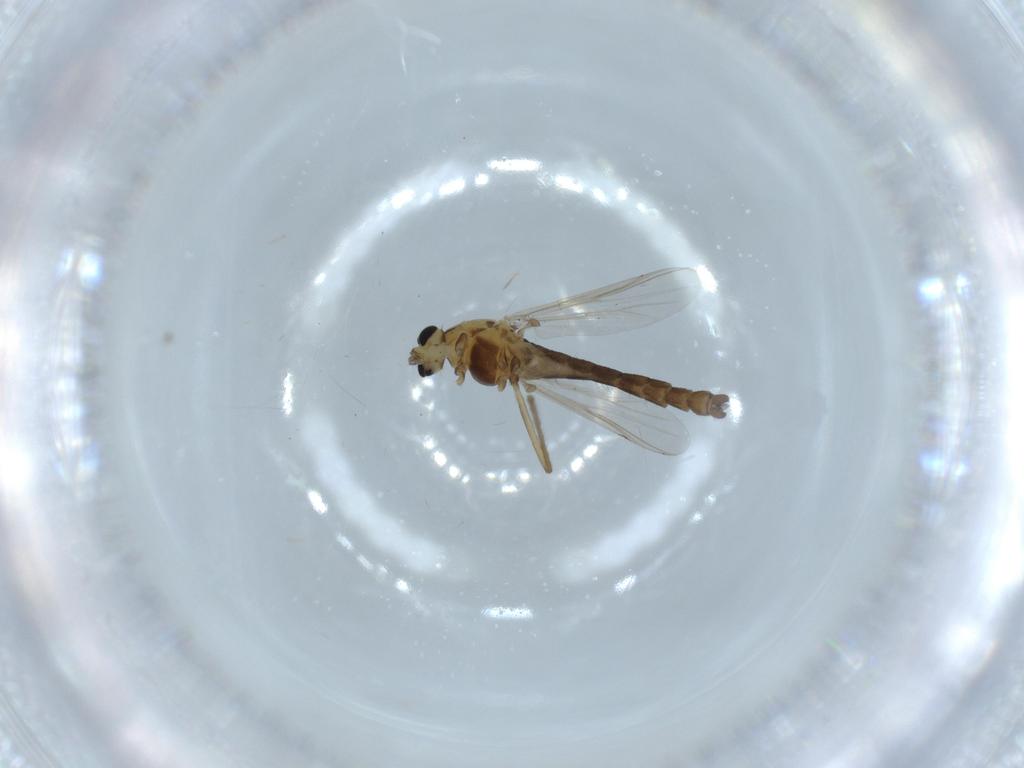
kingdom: Animalia
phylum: Arthropoda
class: Insecta
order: Diptera
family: Chironomidae
